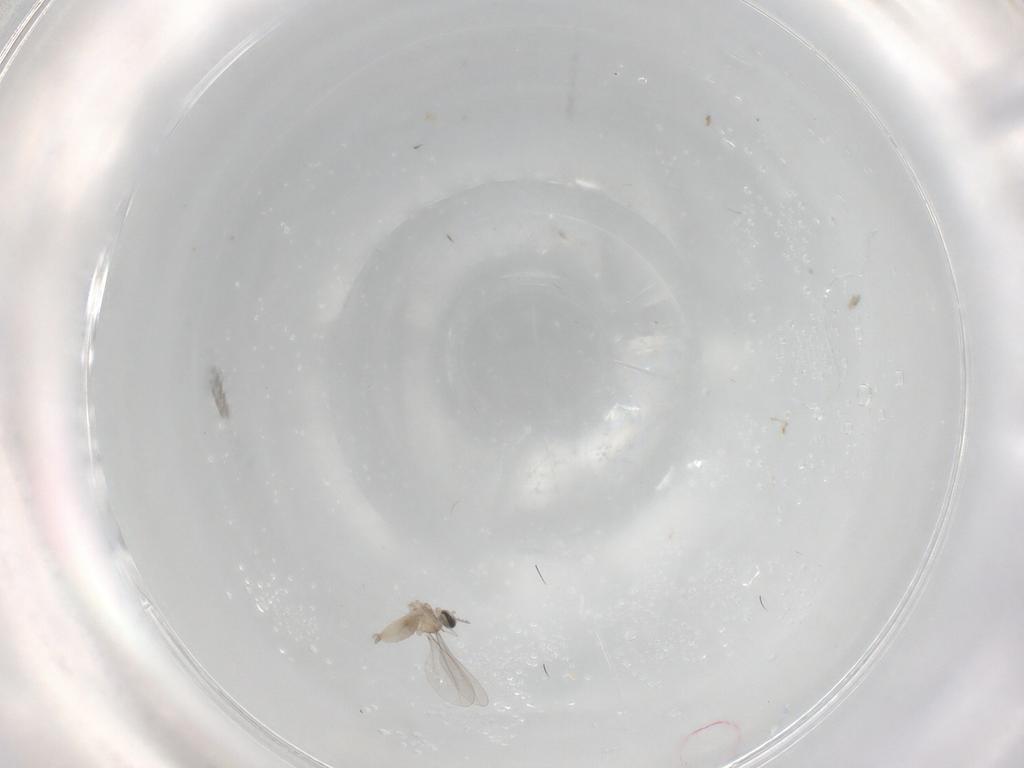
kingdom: Animalia
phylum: Arthropoda
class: Insecta
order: Diptera
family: Cecidomyiidae
